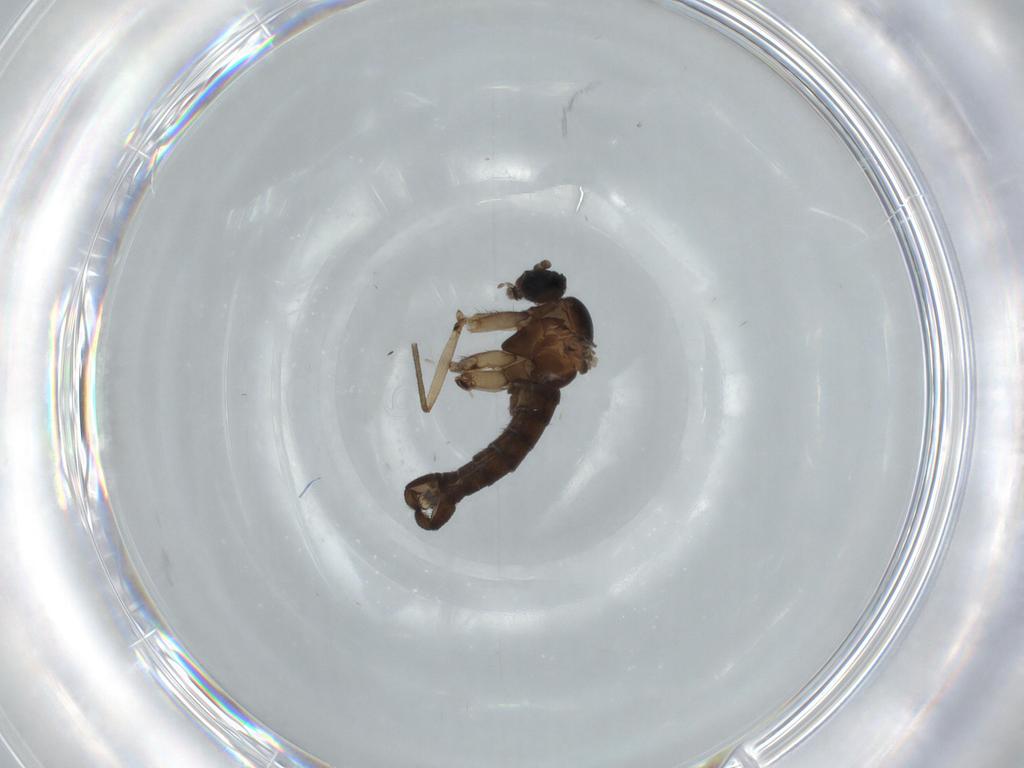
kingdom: Animalia
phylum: Arthropoda
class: Insecta
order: Diptera
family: Sciaridae
